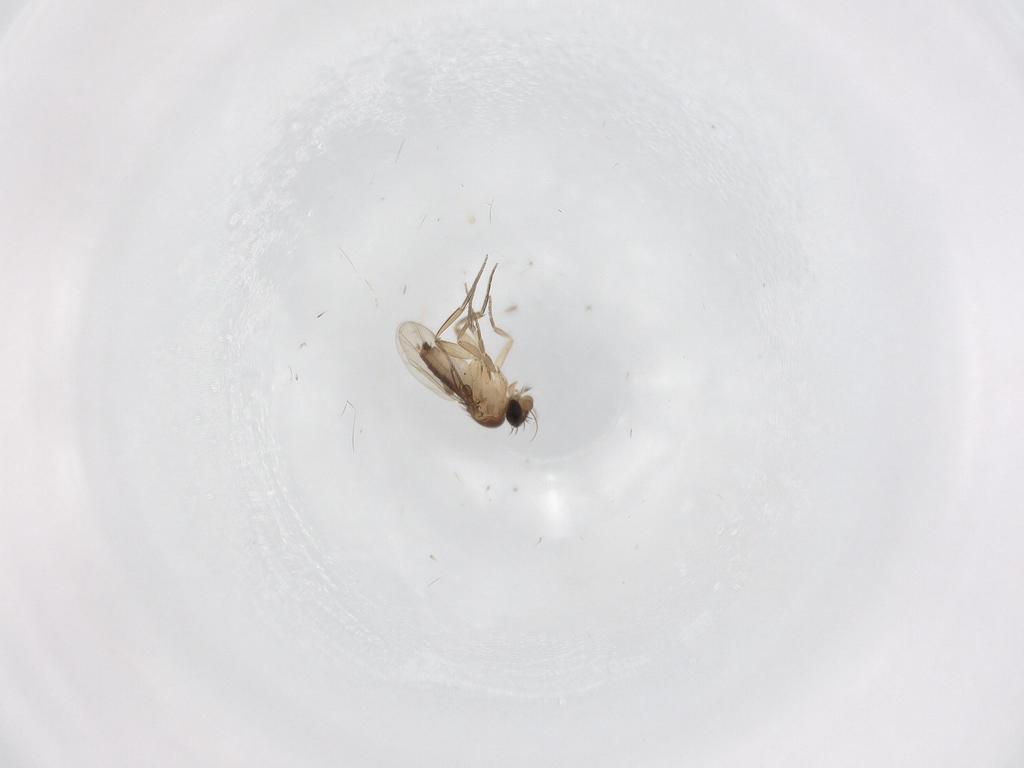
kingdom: Animalia
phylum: Arthropoda
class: Insecta
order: Diptera
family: Phoridae
